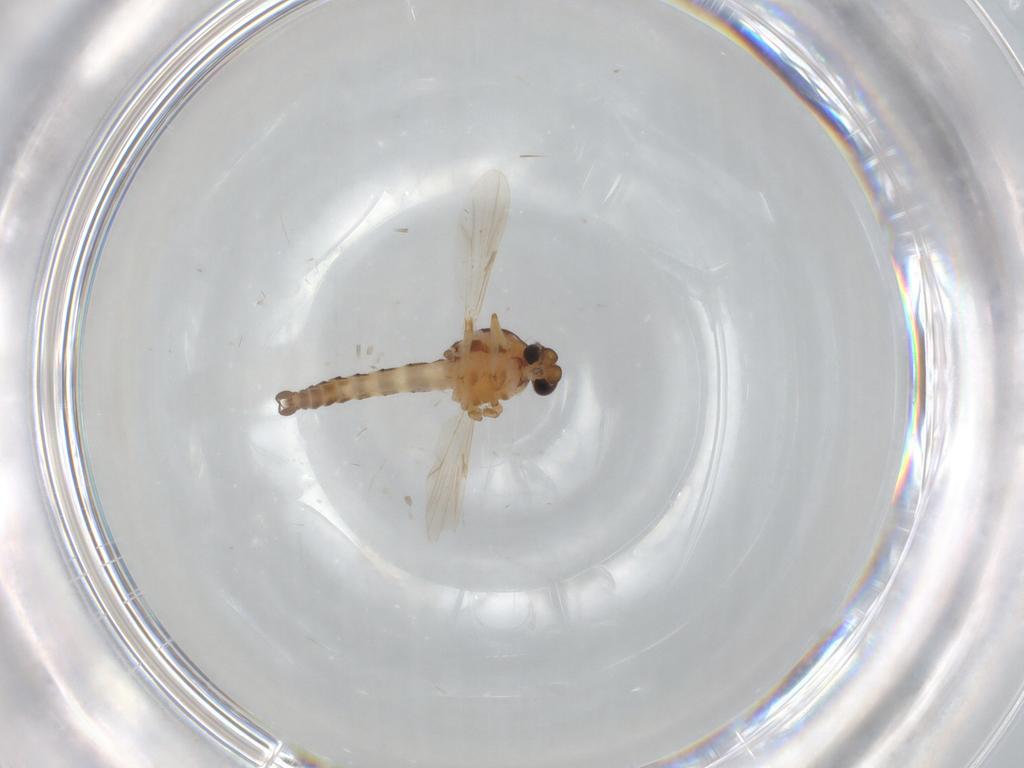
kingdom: Animalia
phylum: Arthropoda
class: Insecta
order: Diptera
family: Ceratopogonidae
